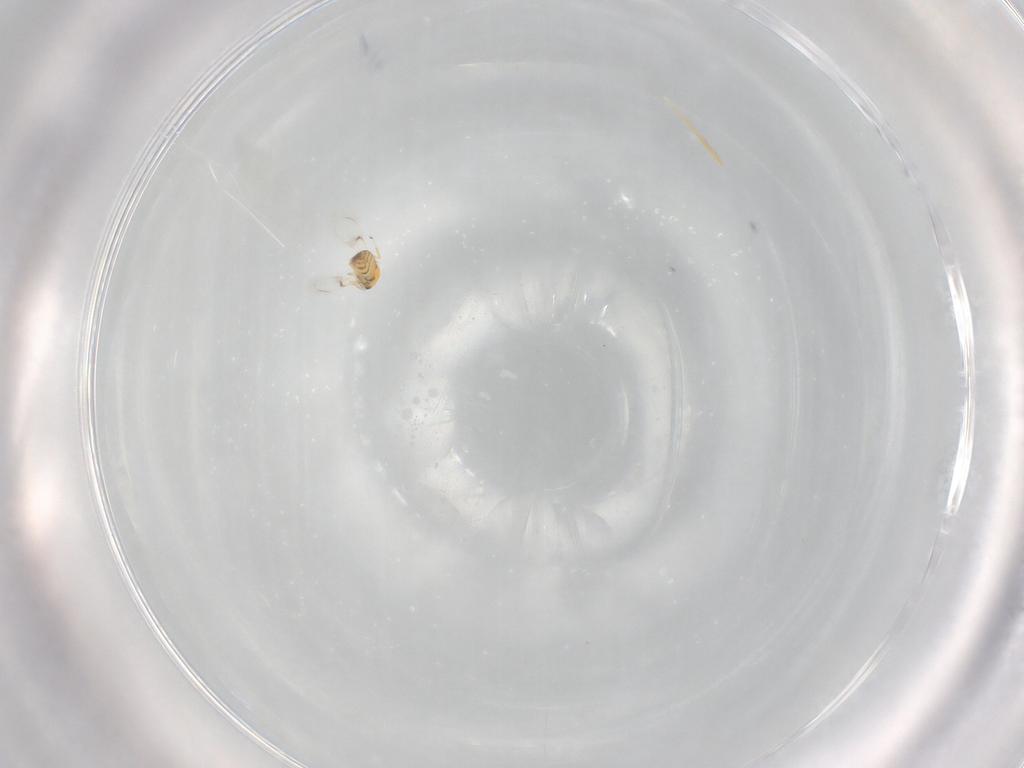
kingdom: Animalia
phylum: Arthropoda
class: Insecta
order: Hymenoptera
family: Trichogrammatidae
